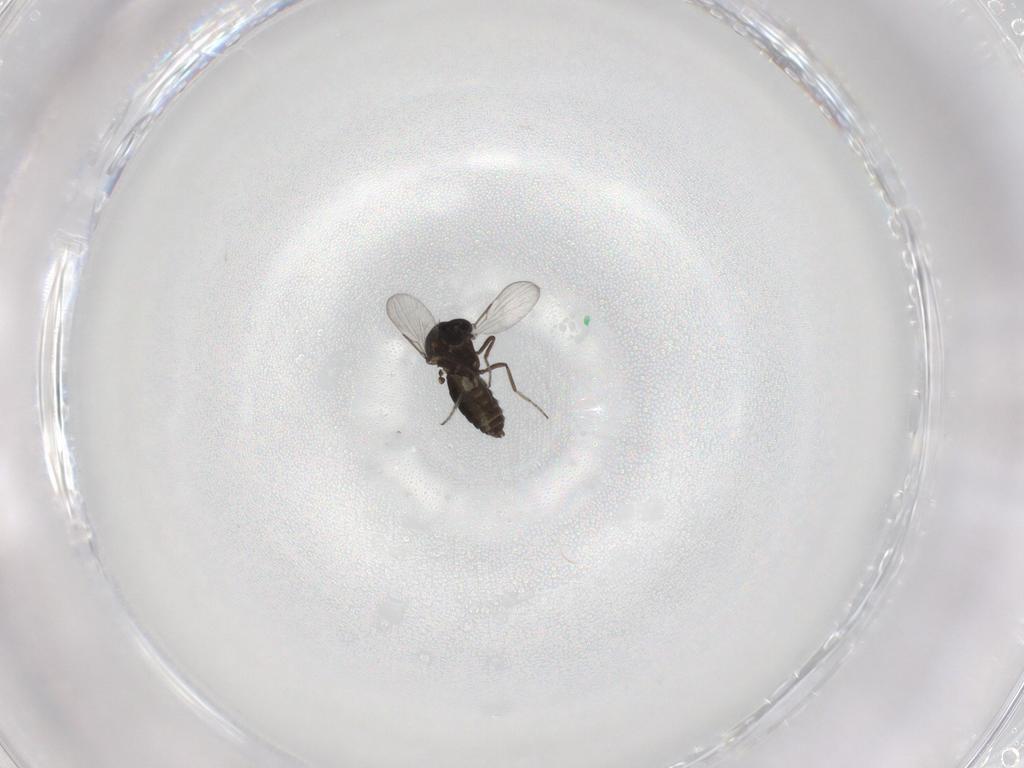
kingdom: Animalia
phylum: Arthropoda
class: Insecta
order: Diptera
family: Ceratopogonidae
